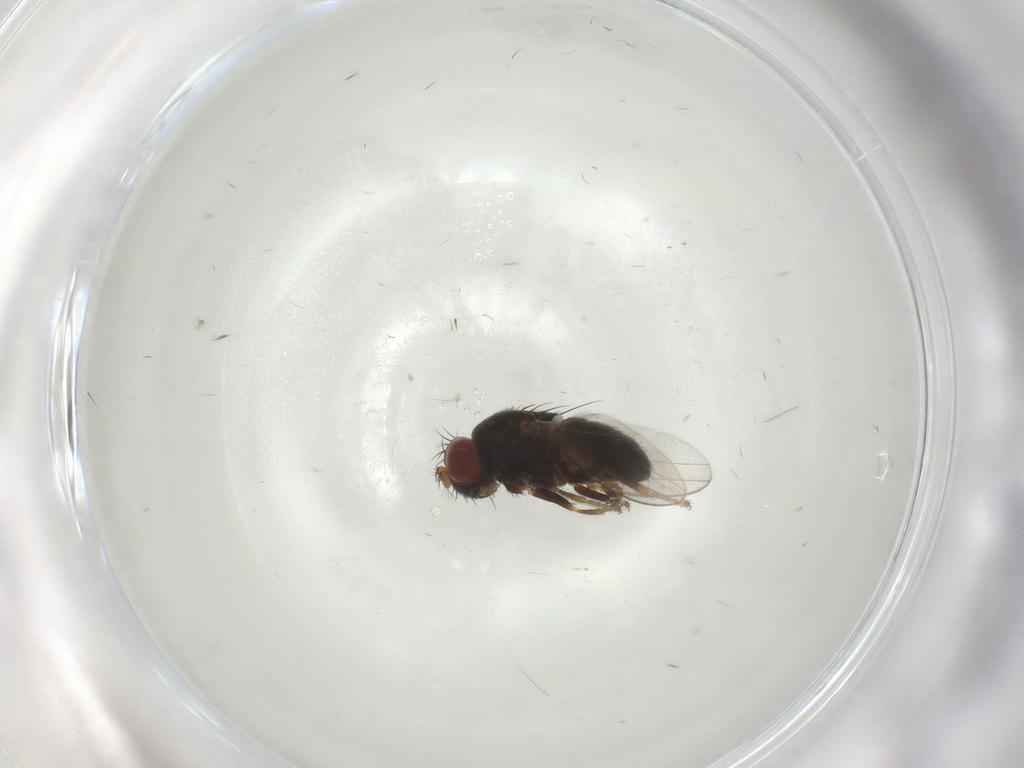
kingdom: Animalia
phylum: Arthropoda
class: Insecta
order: Diptera
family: Ephydridae
